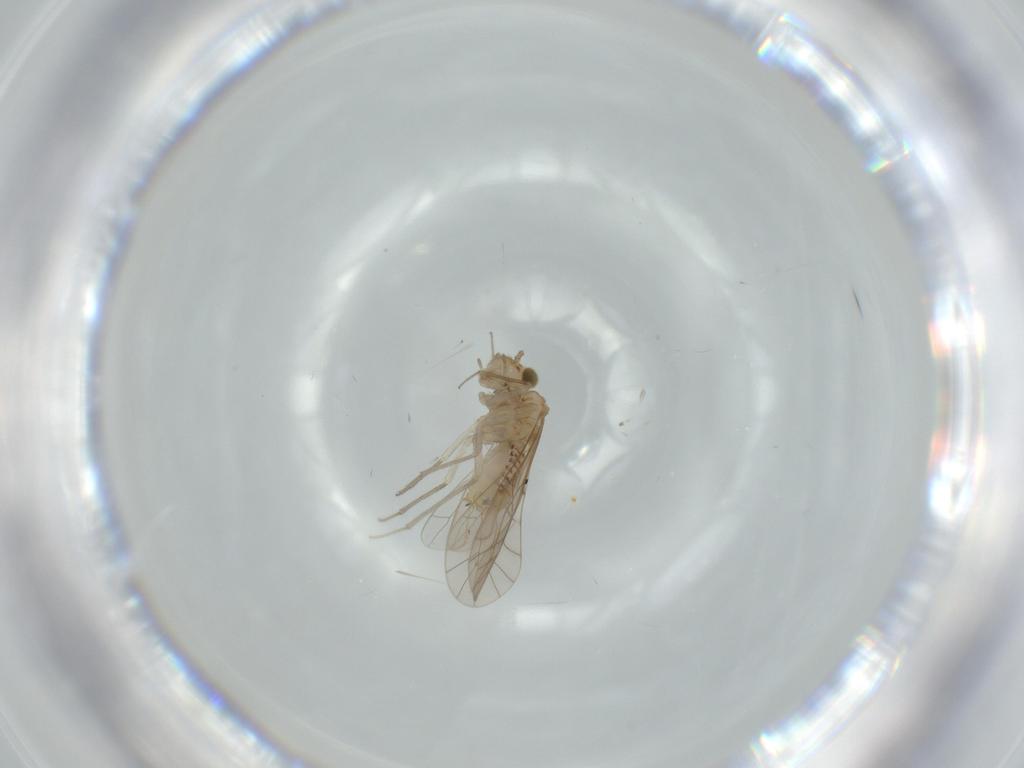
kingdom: Animalia
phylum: Arthropoda
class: Insecta
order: Psocodea
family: Lachesillidae
